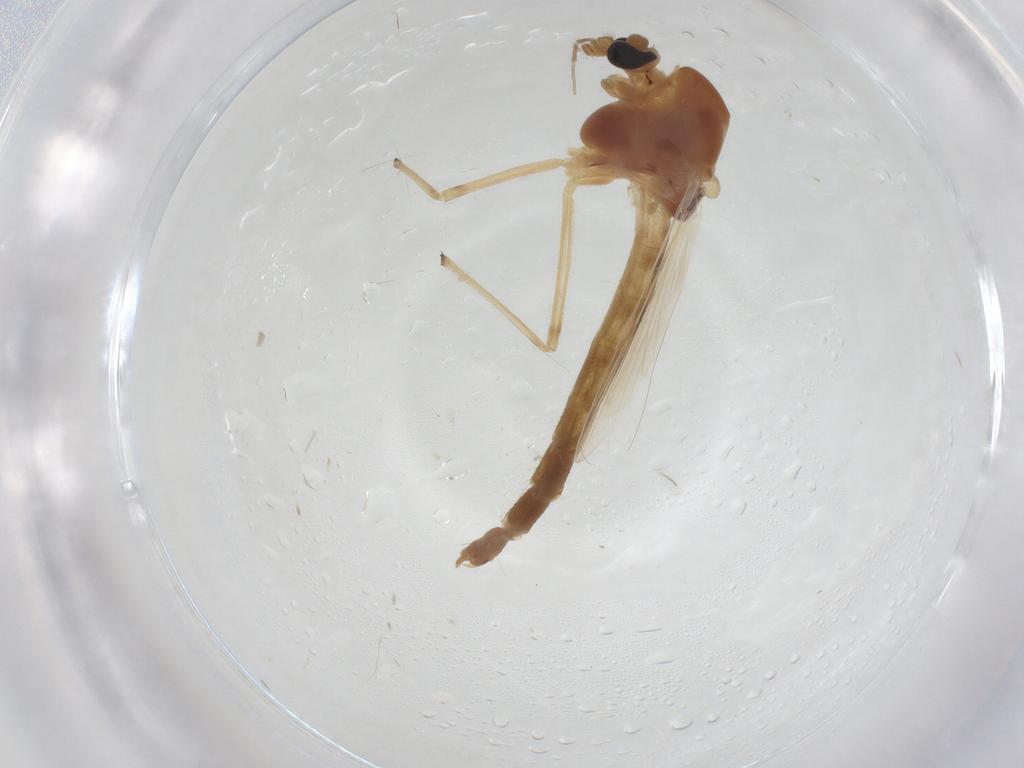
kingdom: Animalia
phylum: Arthropoda
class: Insecta
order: Diptera
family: Chironomidae
